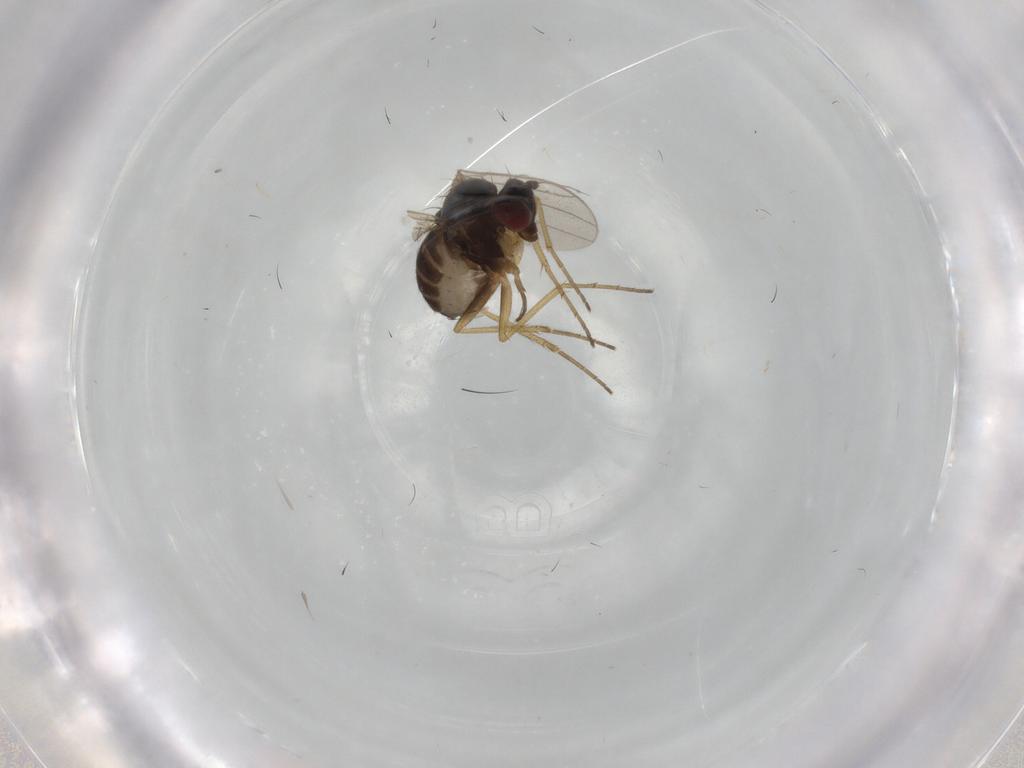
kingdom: Animalia
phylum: Arthropoda
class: Insecta
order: Diptera
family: Dolichopodidae
